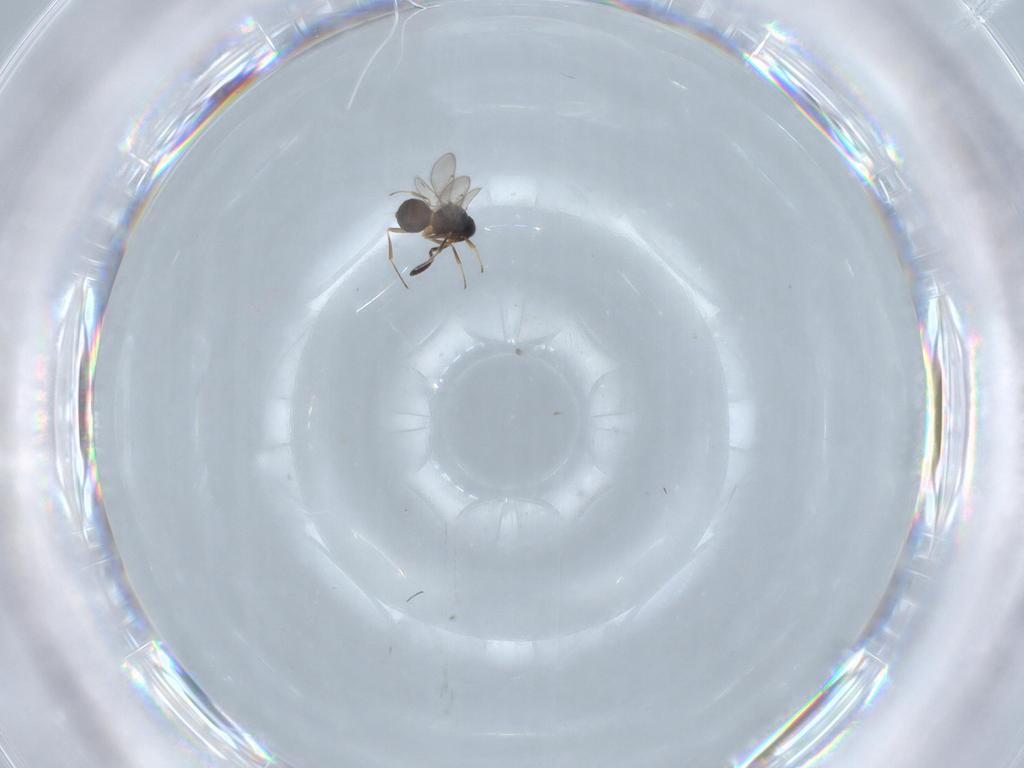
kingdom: Animalia
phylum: Arthropoda
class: Insecta
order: Hymenoptera
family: Scelionidae
